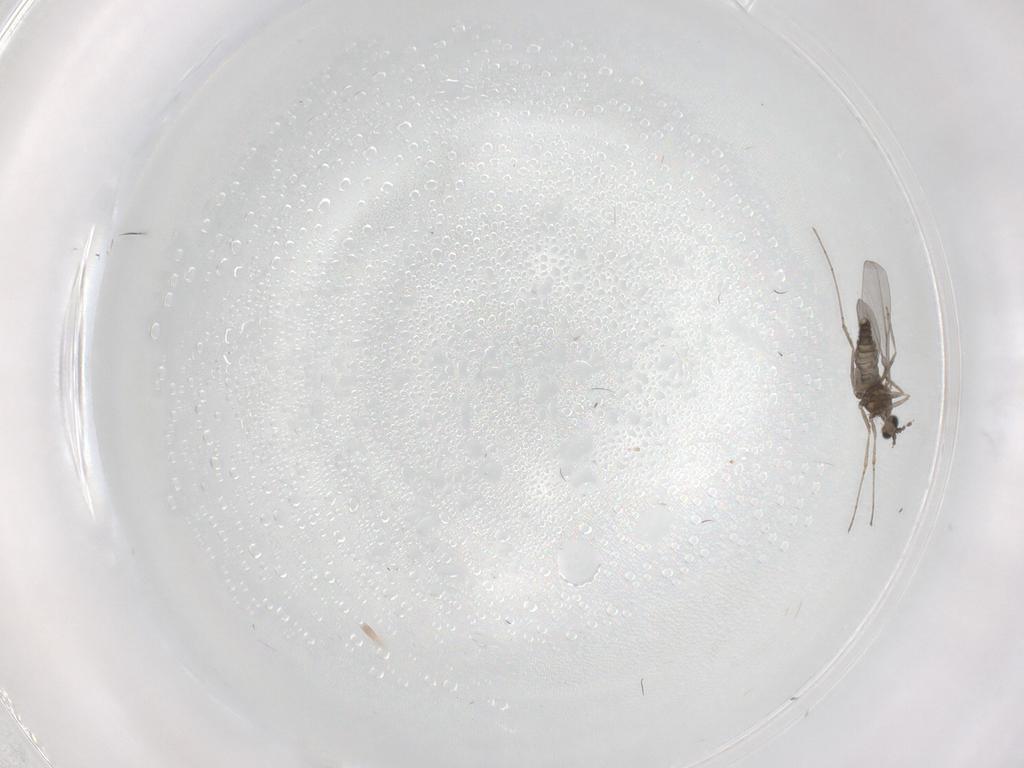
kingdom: Animalia
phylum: Arthropoda
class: Insecta
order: Diptera
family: Cecidomyiidae
